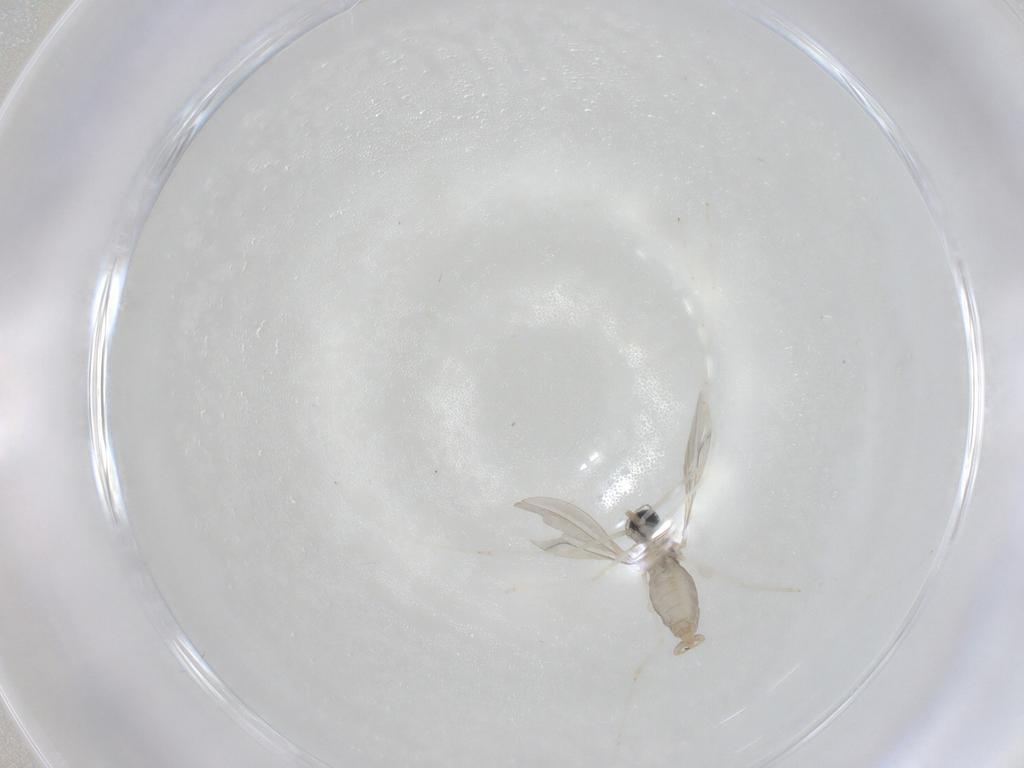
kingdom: Animalia
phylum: Arthropoda
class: Insecta
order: Diptera
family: Cecidomyiidae
